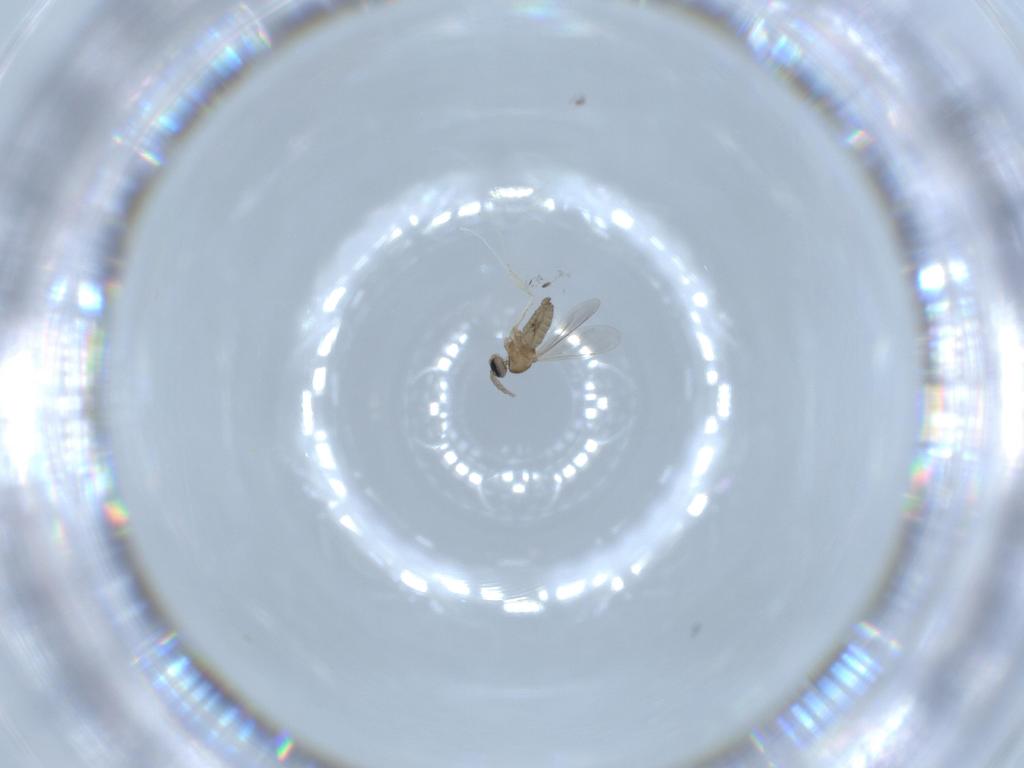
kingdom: Animalia
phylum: Arthropoda
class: Insecta
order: Diptera
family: Cecidomyiidae
